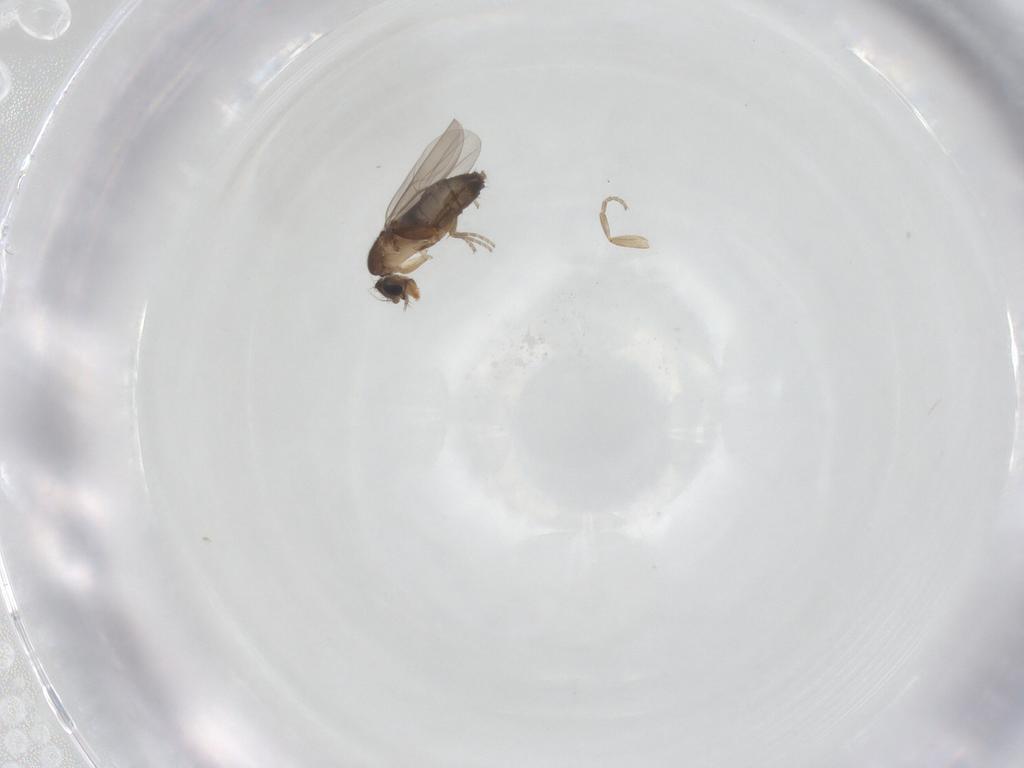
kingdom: Animalia
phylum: Arthropoda
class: Insecta
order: Diptera
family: Phoridae
